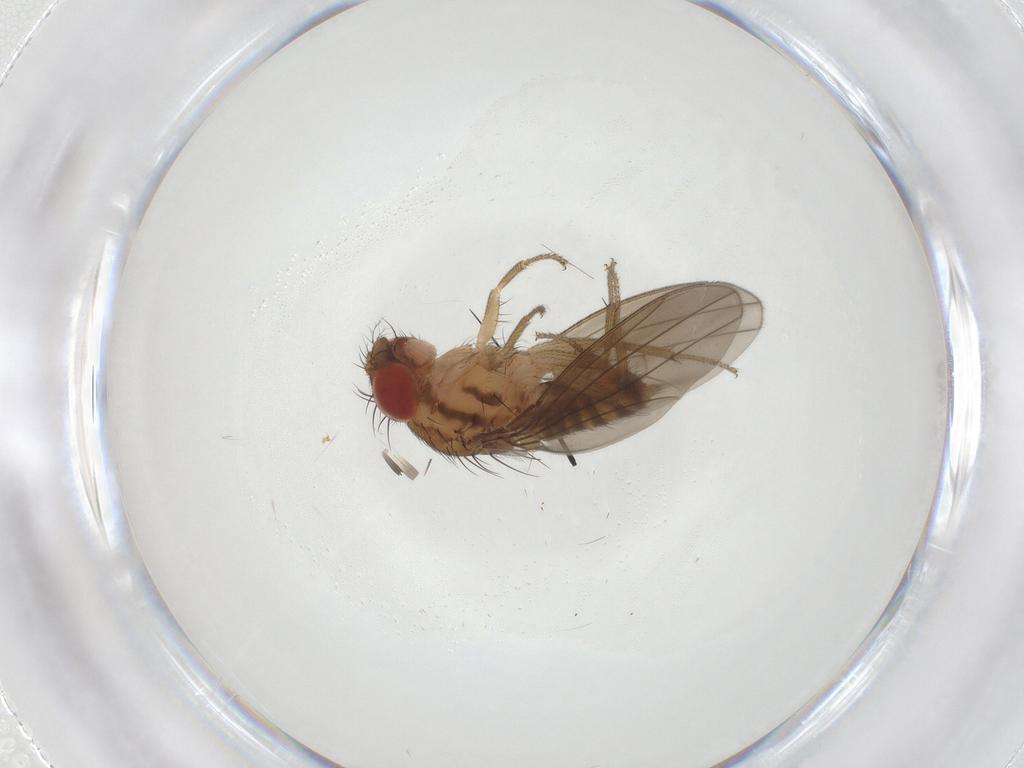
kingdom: Animalia
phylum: Arthropoda
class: Insecta
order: Diptera
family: Drosophilidae
